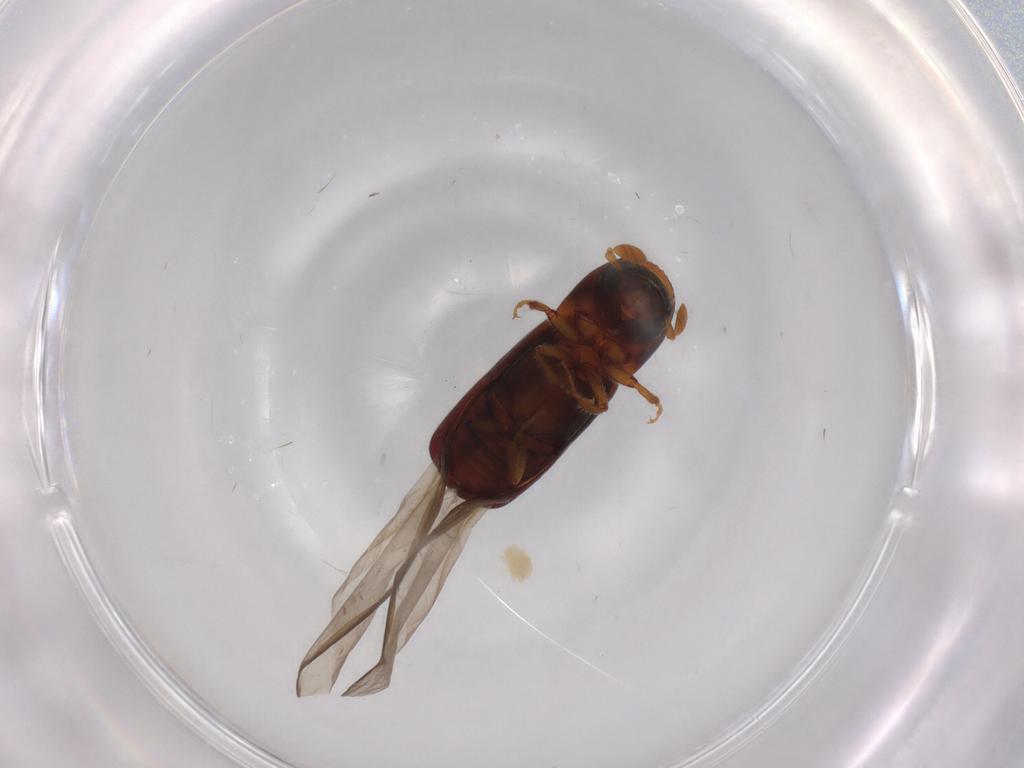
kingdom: Animalia
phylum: Arthropoda
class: Insecta
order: Coleoptera
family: Curculionidae
